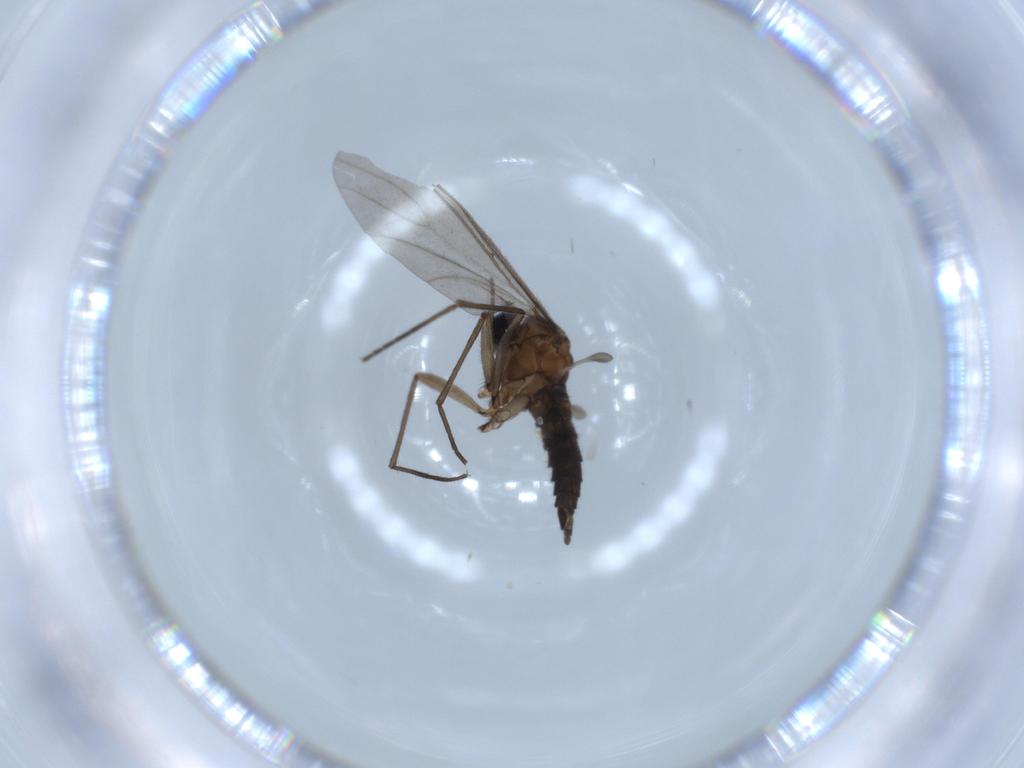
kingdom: Animalia
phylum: Arthropoda
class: Insecta
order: Diptera
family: Sciaridae
